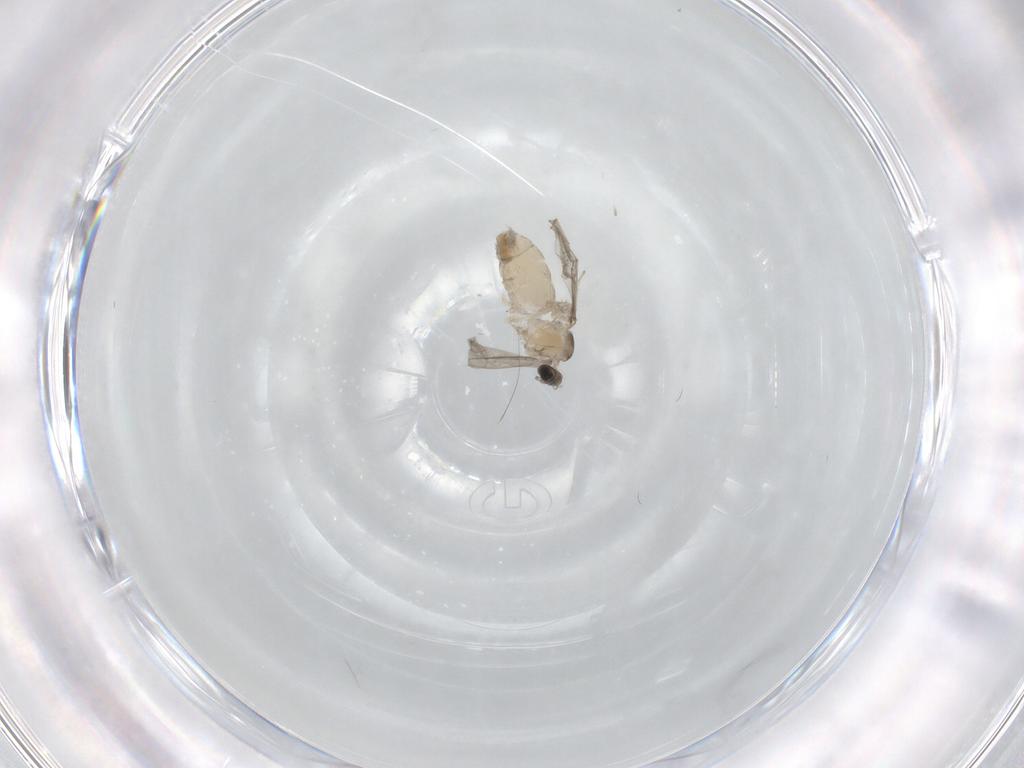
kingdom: Animalia
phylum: Arthropoda
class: Insecta
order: Diptera
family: Cecidomyiidae
